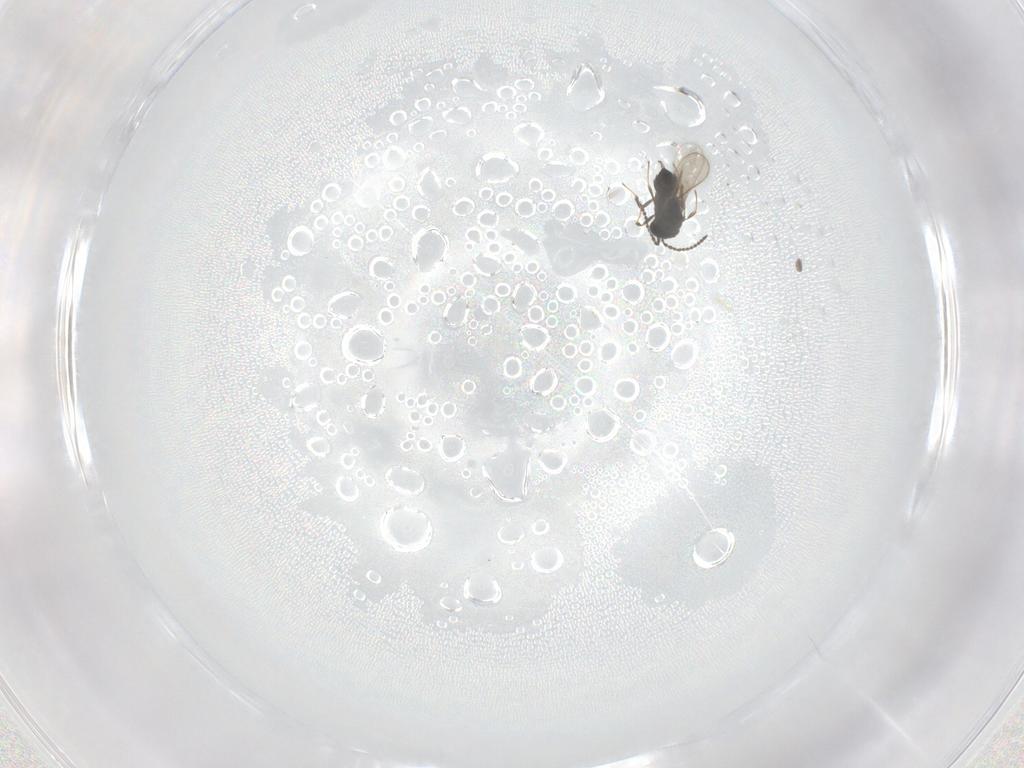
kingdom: Animalia
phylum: Arthropoda
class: Insecta
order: Hymenoptera
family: Scelionidae
